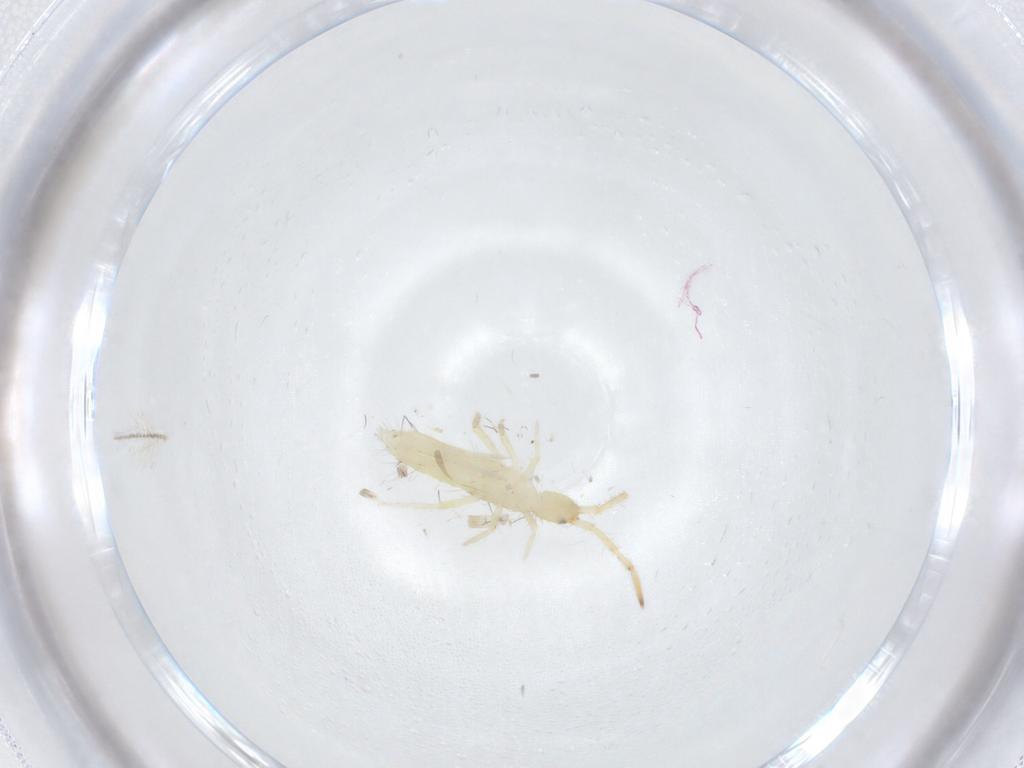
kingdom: Animalia
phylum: Arthropoda
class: Collembola
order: Entomobryomorpha
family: Entomobryidae
